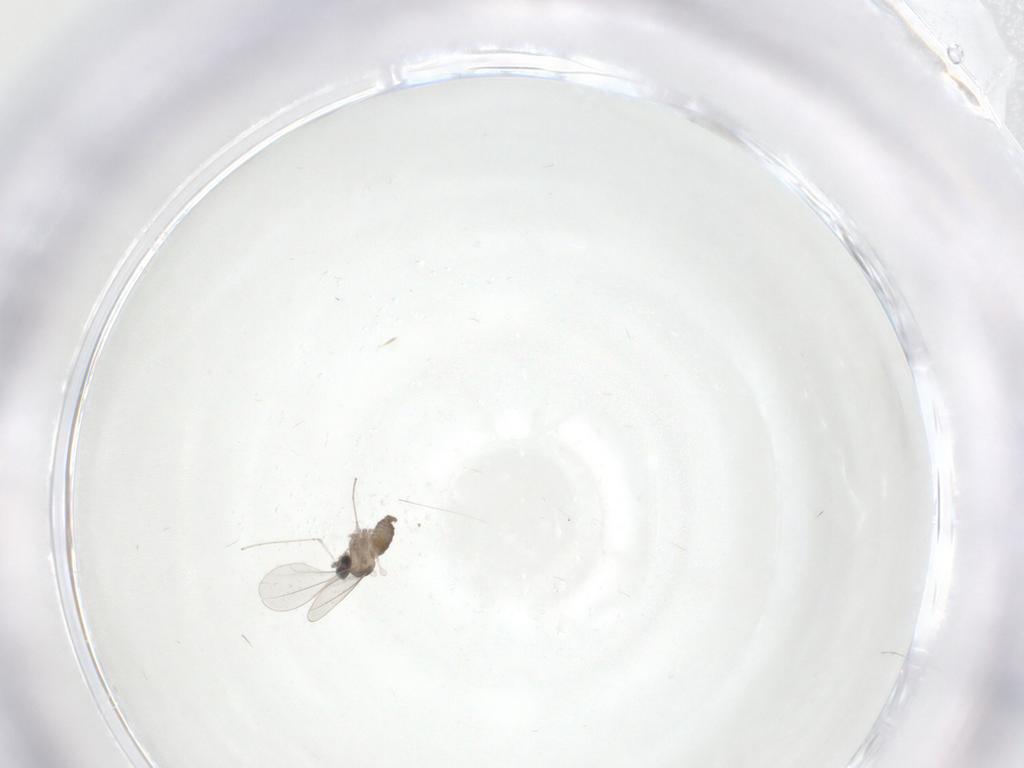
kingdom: Animalia
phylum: Arthropoda
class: Insecta
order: Diptera
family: Cecidomyiidae
